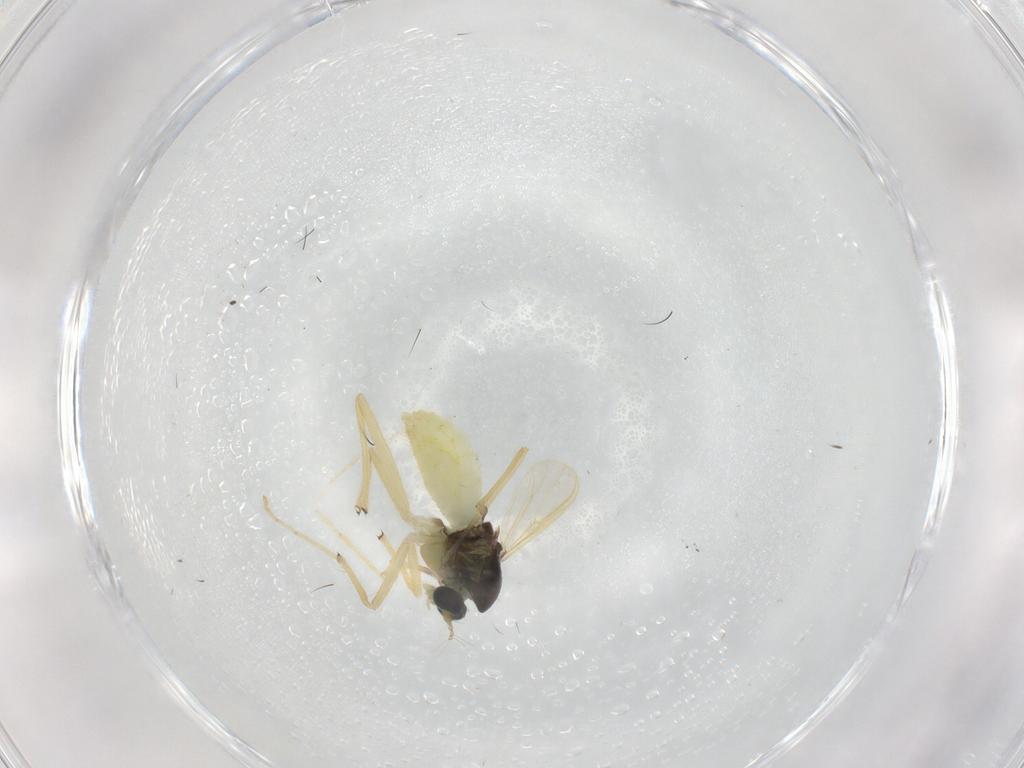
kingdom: Animalia
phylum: Arthropoda
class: Insecta
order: Diptera
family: Chironomidae
